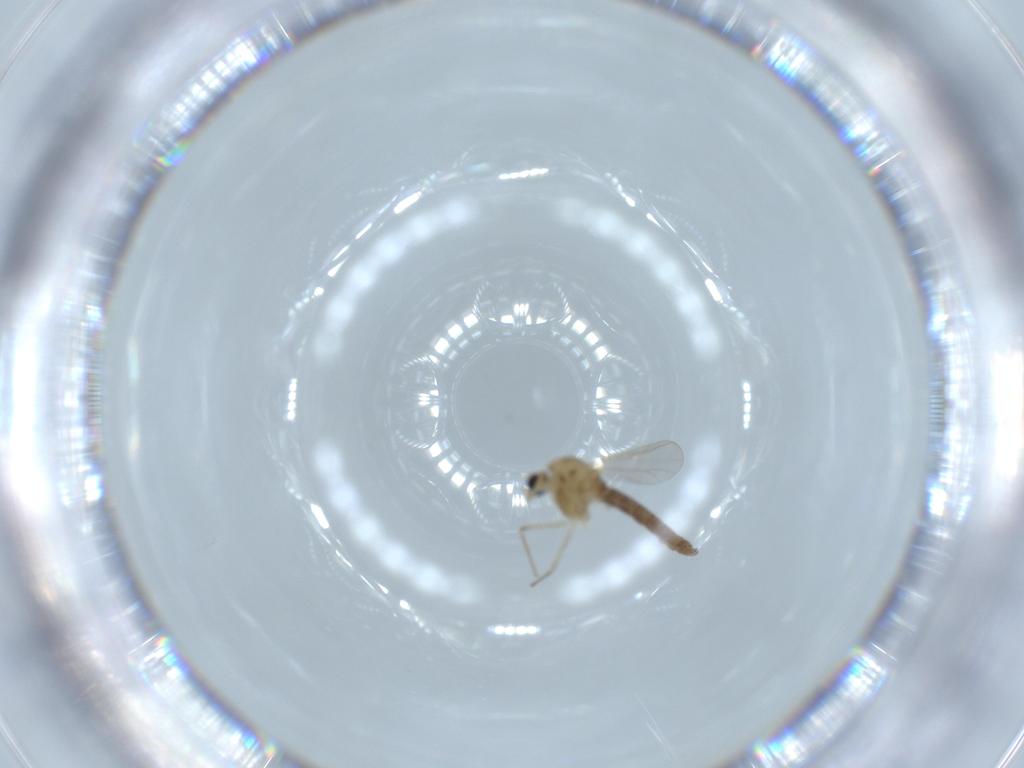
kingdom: Animalia
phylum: Arthropoda
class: Insecta
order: Diptera
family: Chironomidae
